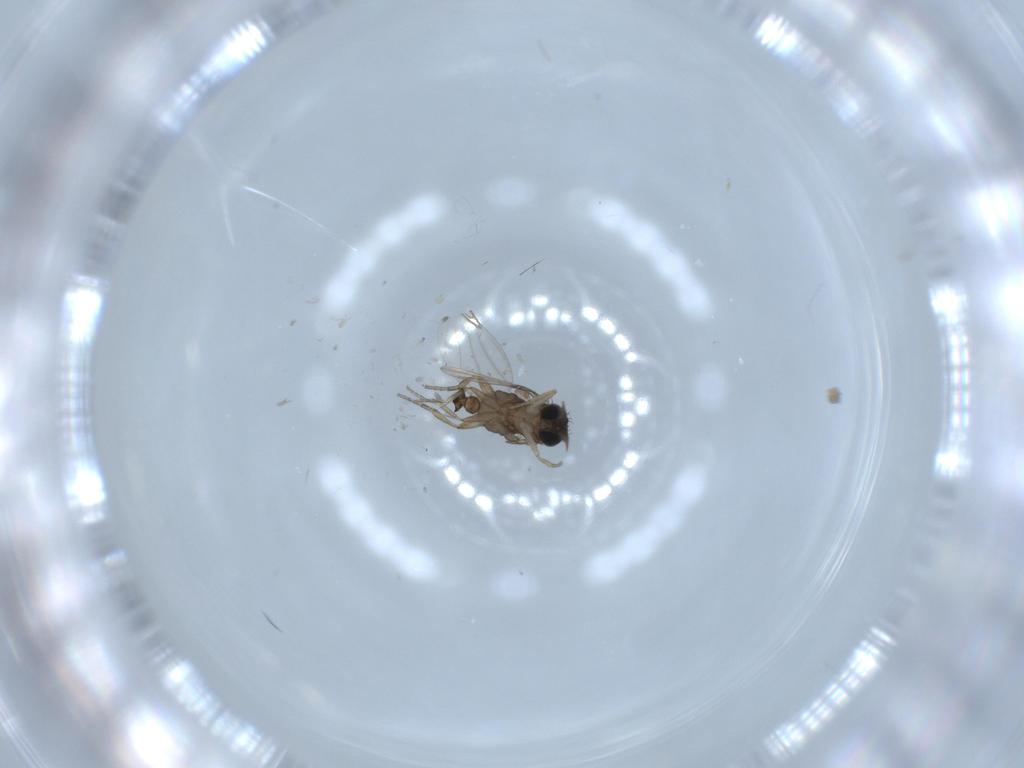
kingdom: Animalia
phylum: Arthropoda
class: Insecta
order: Diptera
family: Phoridae
